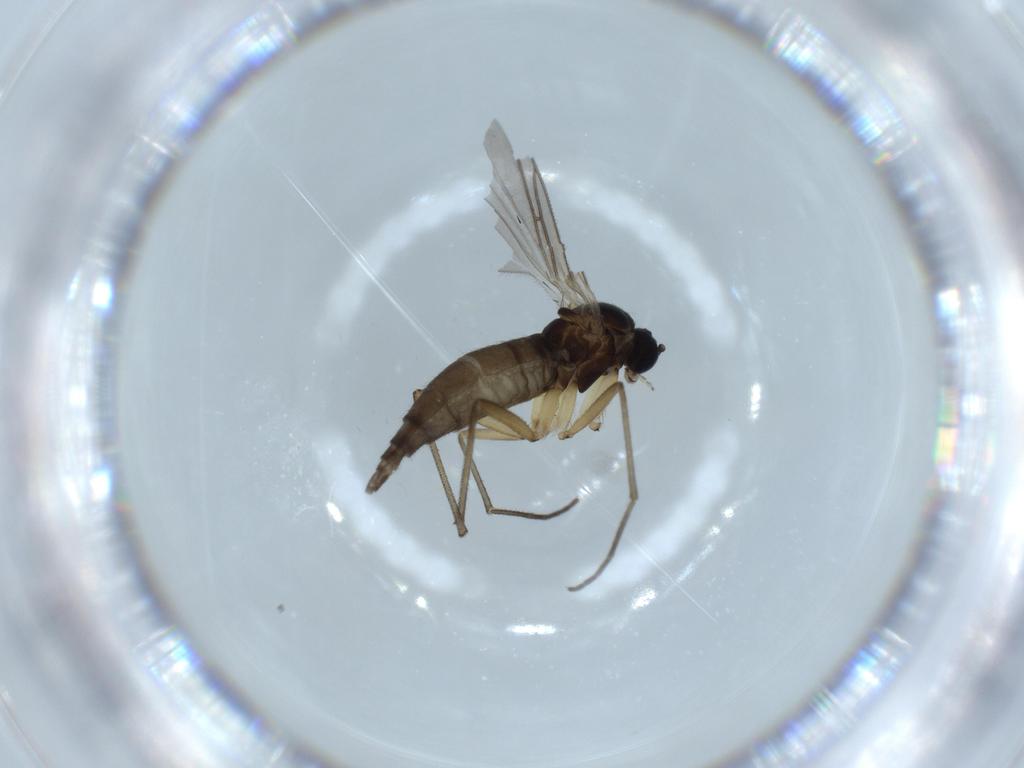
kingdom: Animalia
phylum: Arthropoda
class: Insecta
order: Diptera
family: Sciaridae
